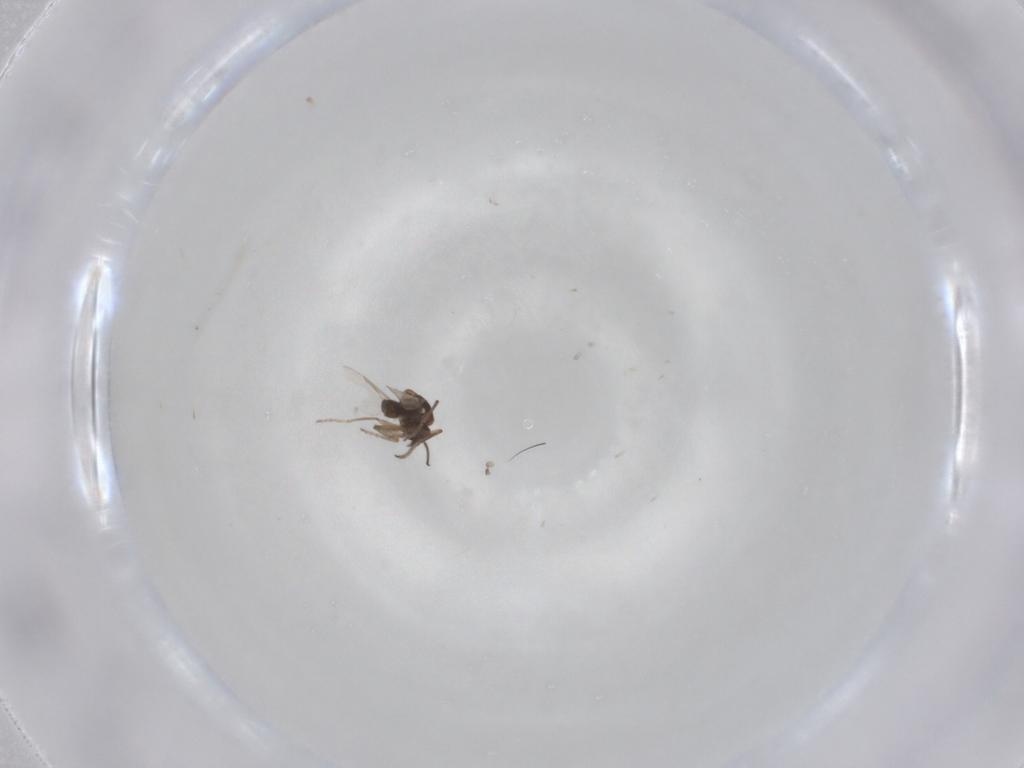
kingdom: Animalia
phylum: Arthropoda
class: Insecta
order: Diptera
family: Ceratopogonidae
